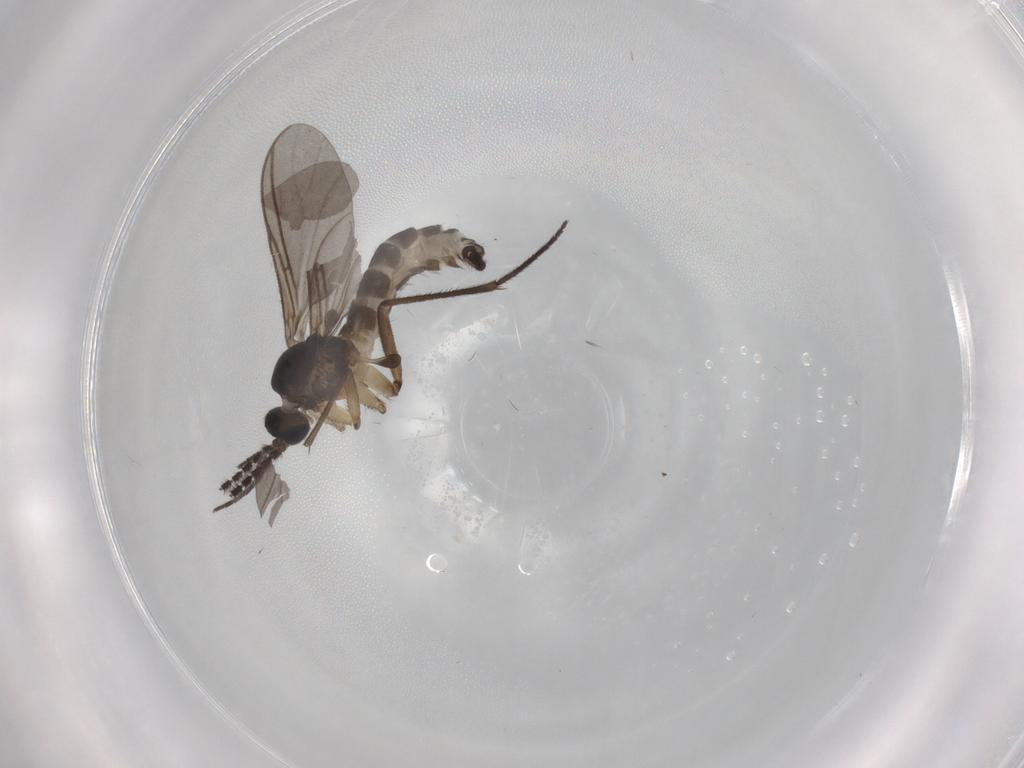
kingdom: Animalia
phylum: Arthropoda
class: Insecta
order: Diptera
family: Sciaridae
